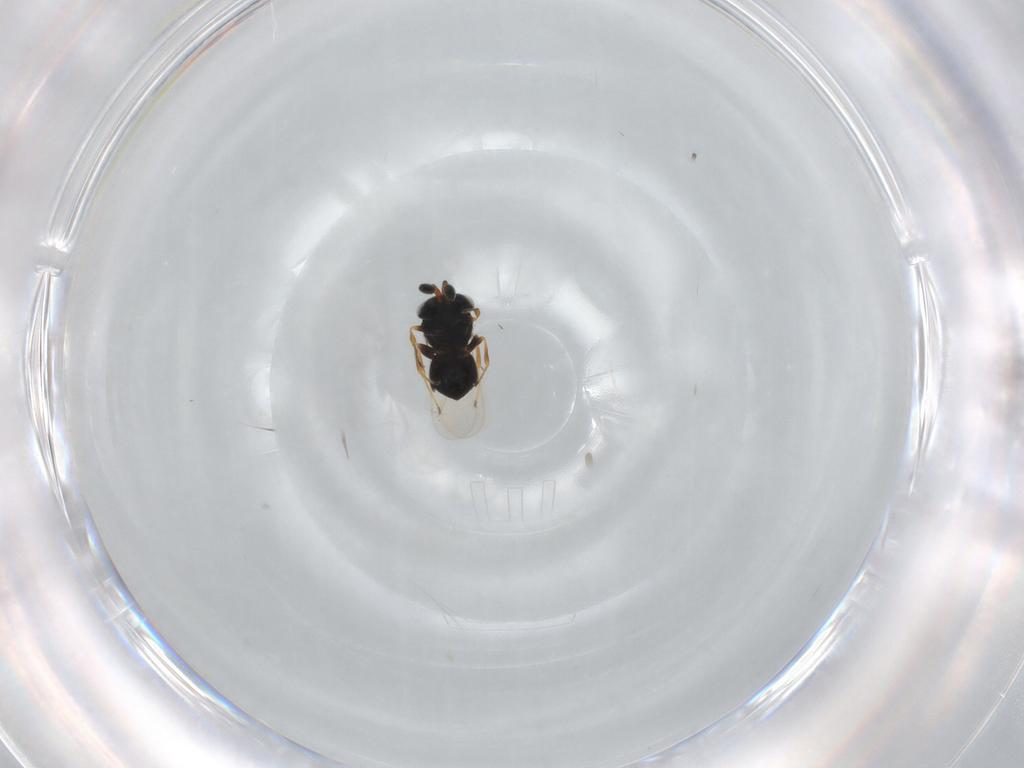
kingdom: Animalia
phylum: Arthropoda
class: Insecta
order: Hymenoptera
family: Scelionidae
